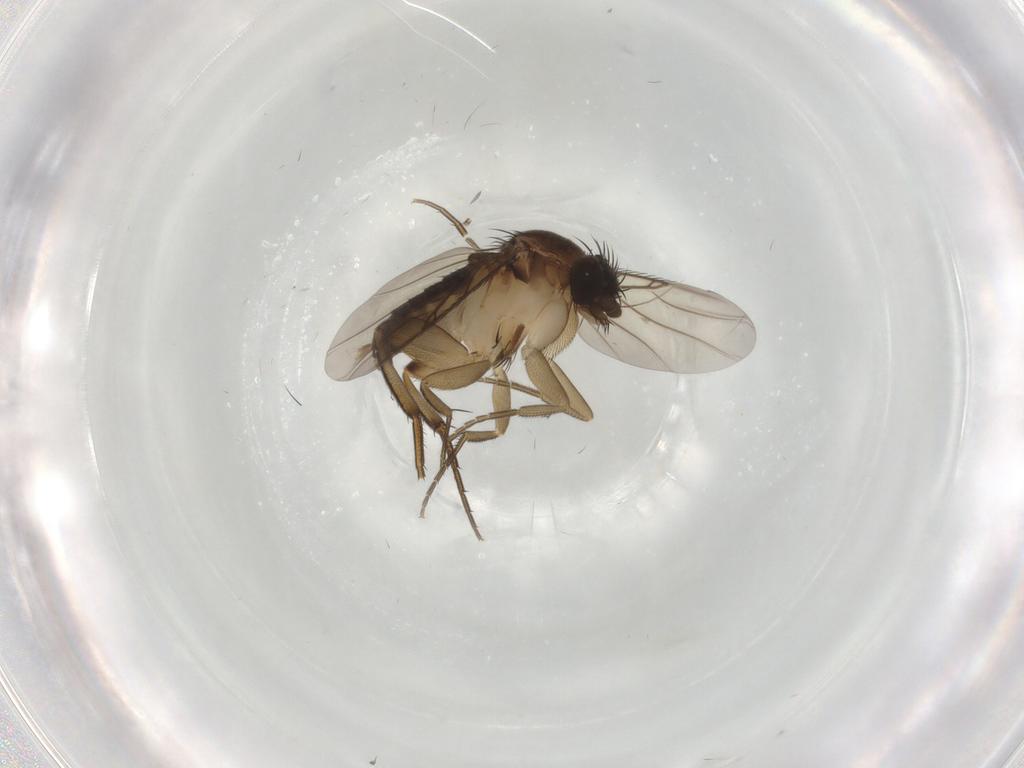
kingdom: Animalia
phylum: Arthropoda
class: Insecta
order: Diptera
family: Phoridae
